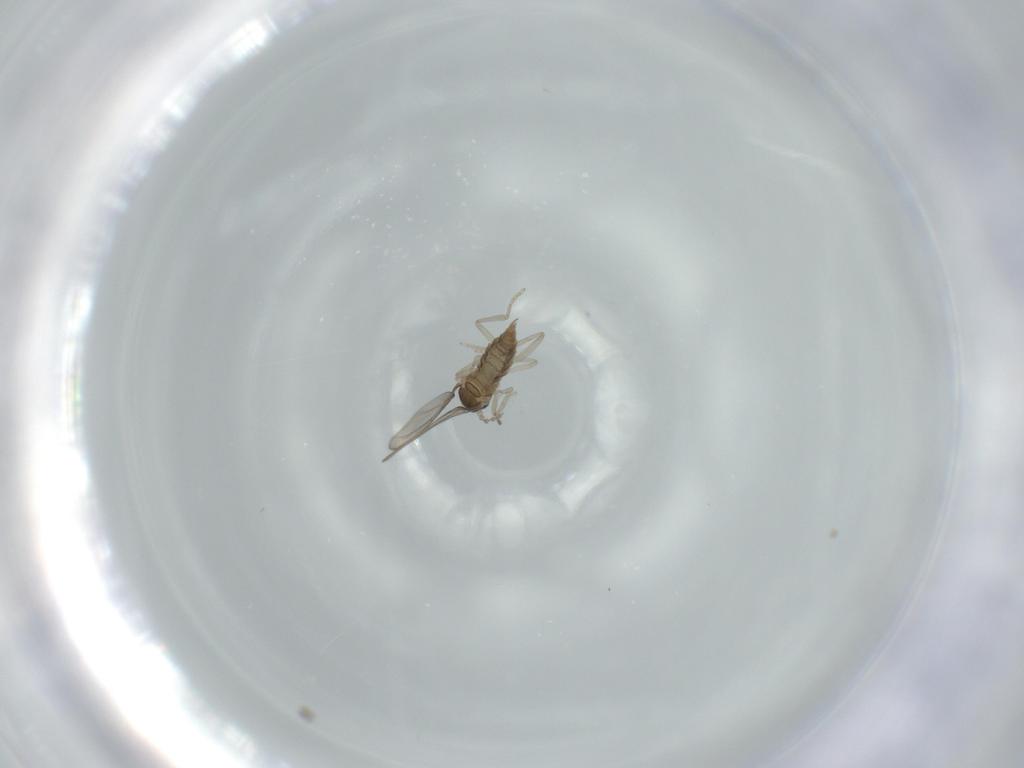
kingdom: Animalia
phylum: Arthropoda
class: Insecta
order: Diptera
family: Cecidomyiidae
